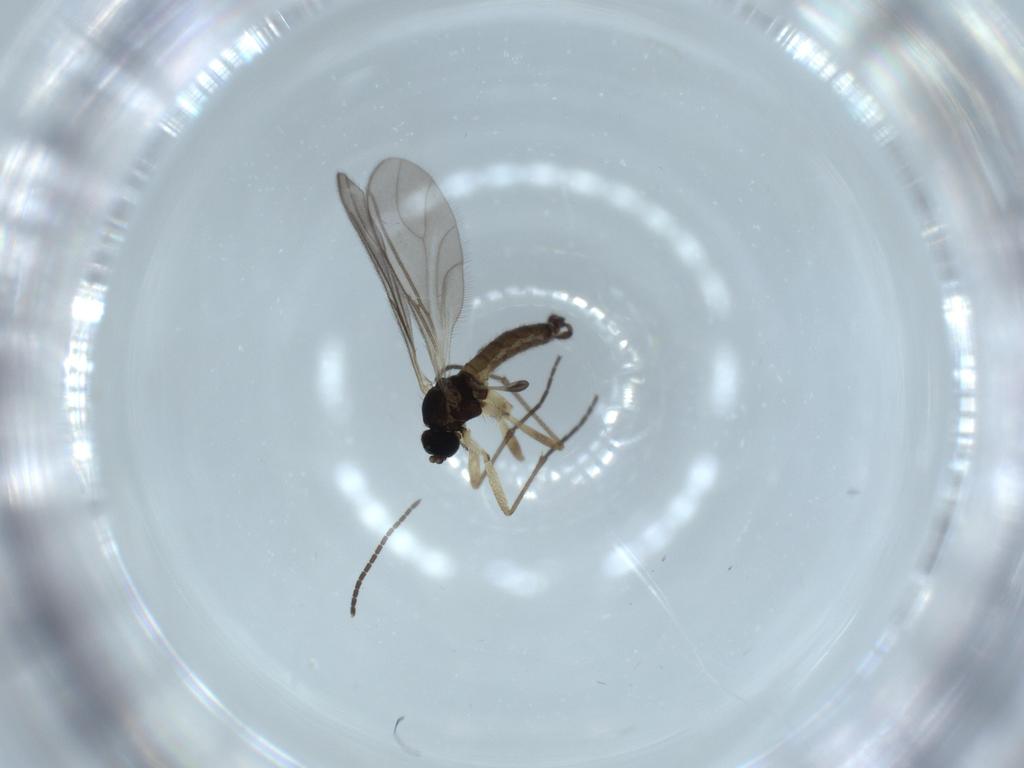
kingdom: Animalia
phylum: Arthropoda
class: Insecta
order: Diptera
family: Sciaridae
